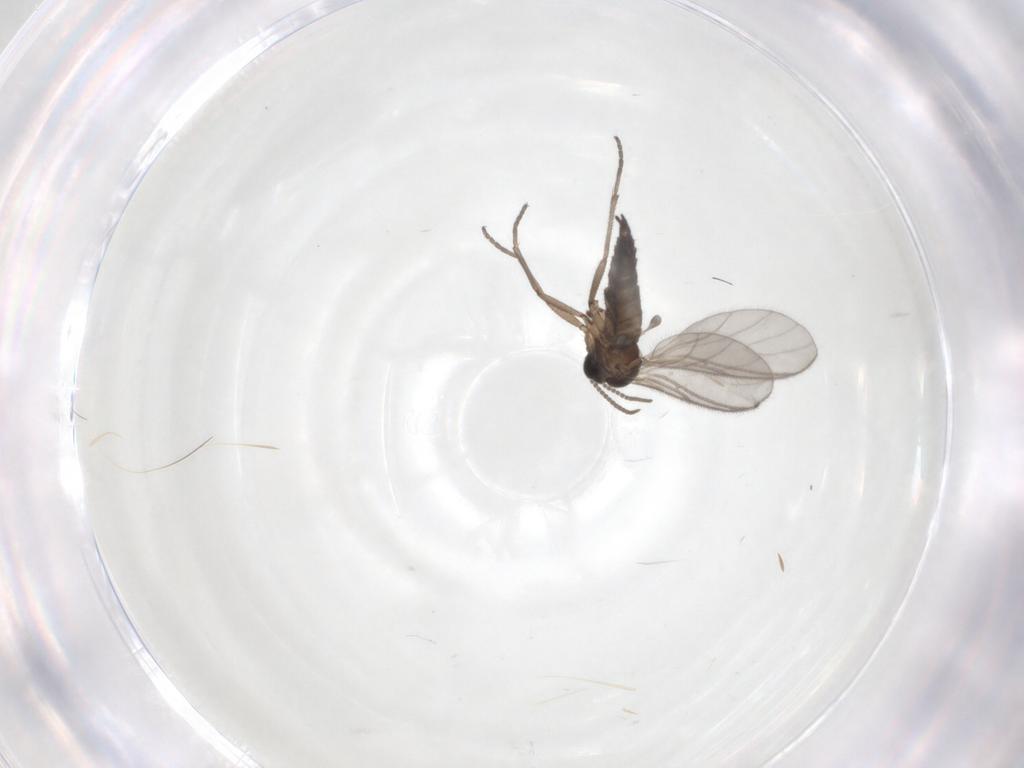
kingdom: Animalia
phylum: Arthropoda
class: Insecta
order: Diptera
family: Sciaridae
